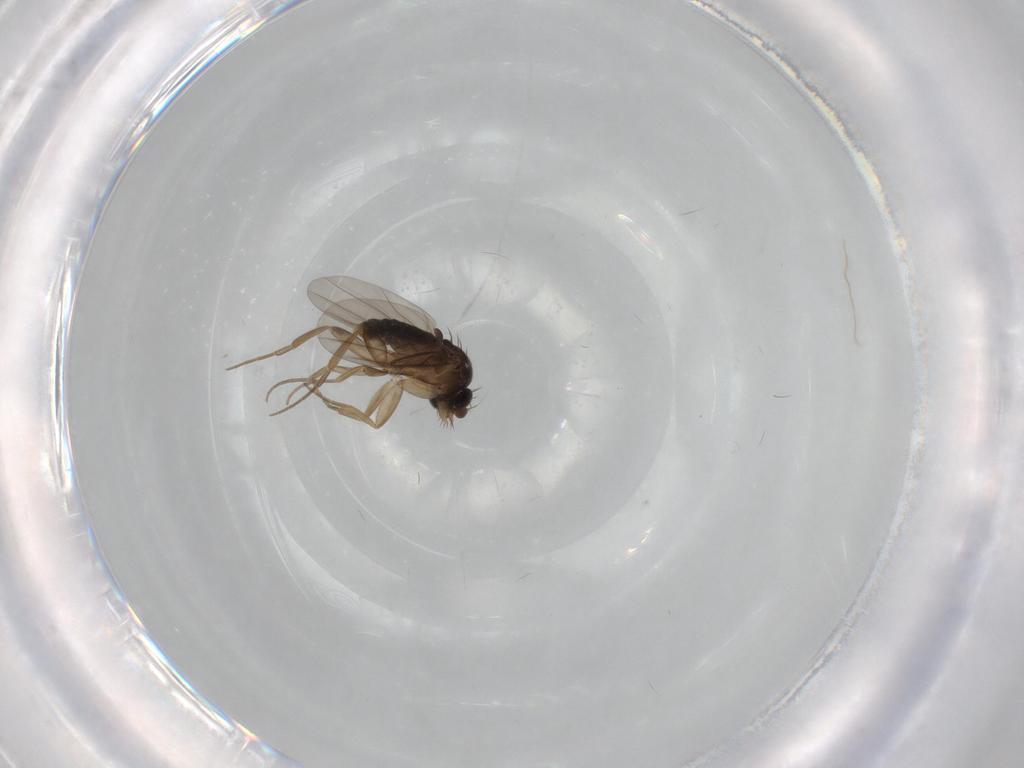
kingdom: Animalia
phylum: Arthropoda
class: Insecta
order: Diptera
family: Phoridae
